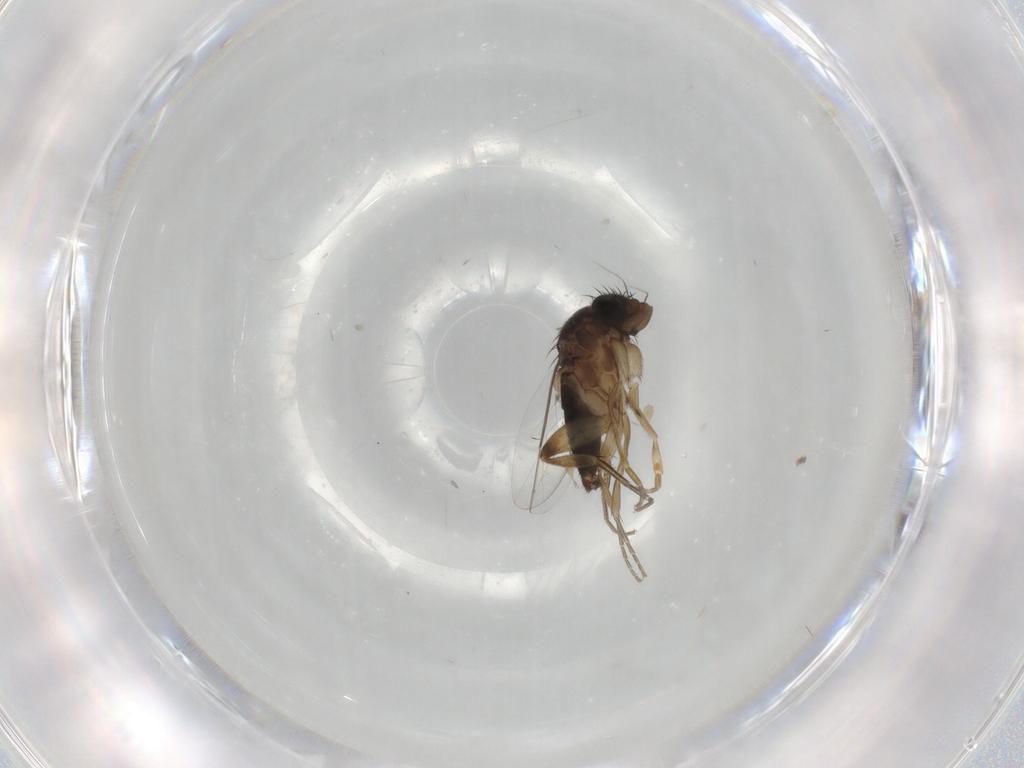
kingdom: Animalia
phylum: Arthropoda
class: Insecta
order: Diptera
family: Phoridae
